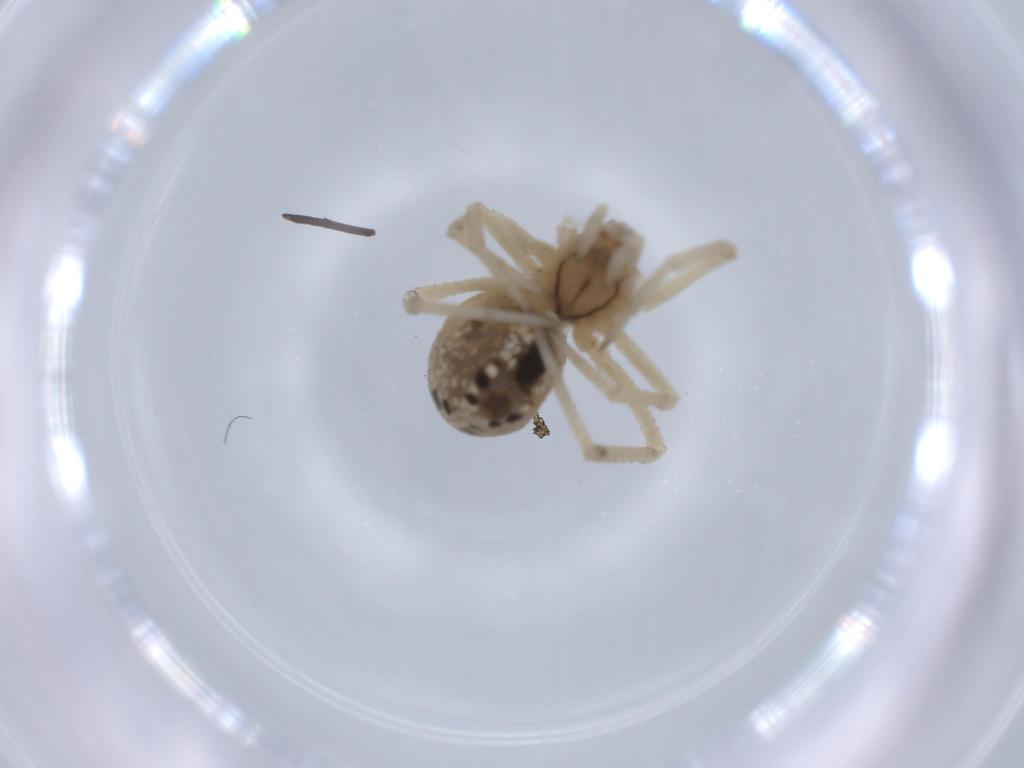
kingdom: Animalia
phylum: Arthropoda
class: Arachnida
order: Araneae
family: Theridiidae
